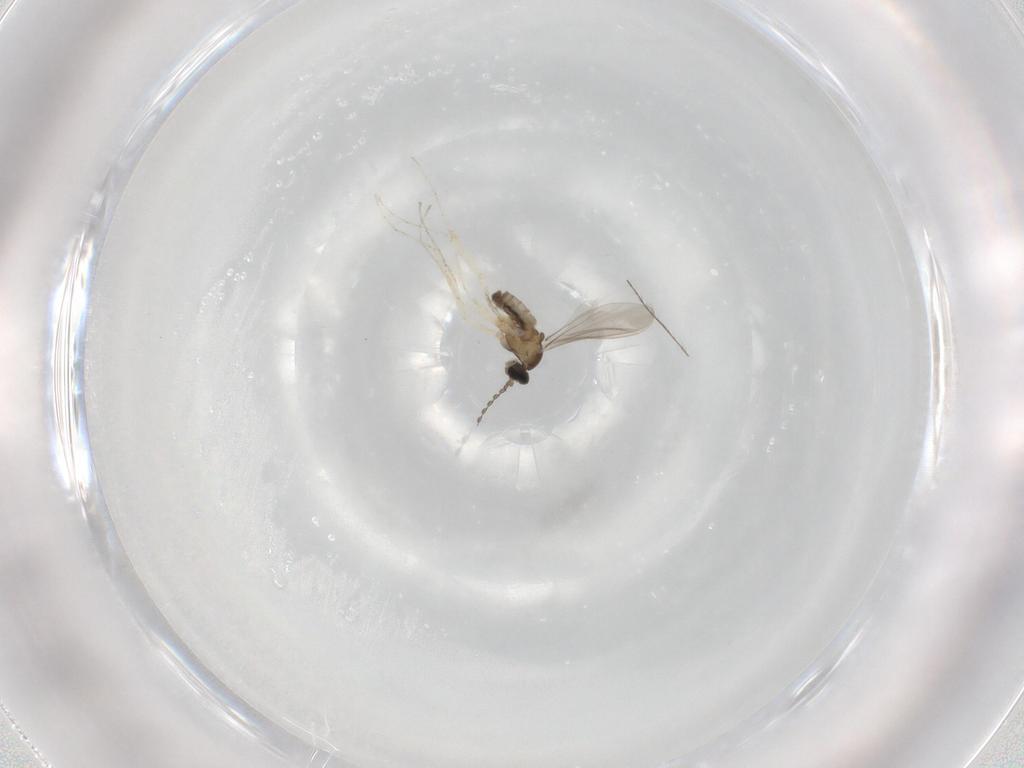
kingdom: Animalia
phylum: Arthropoda
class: Insecta
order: Diptera
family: Cecidomyiidae
